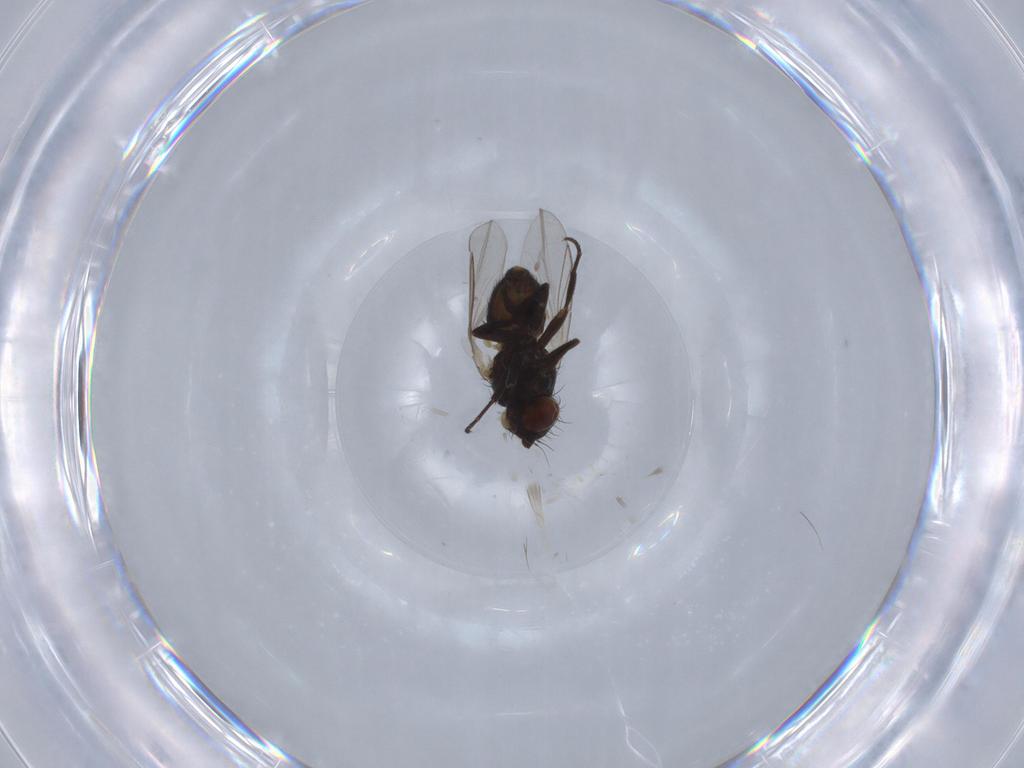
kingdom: Animalia
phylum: Arthropoda
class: Insecta
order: Diptera
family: Agromyzidae
